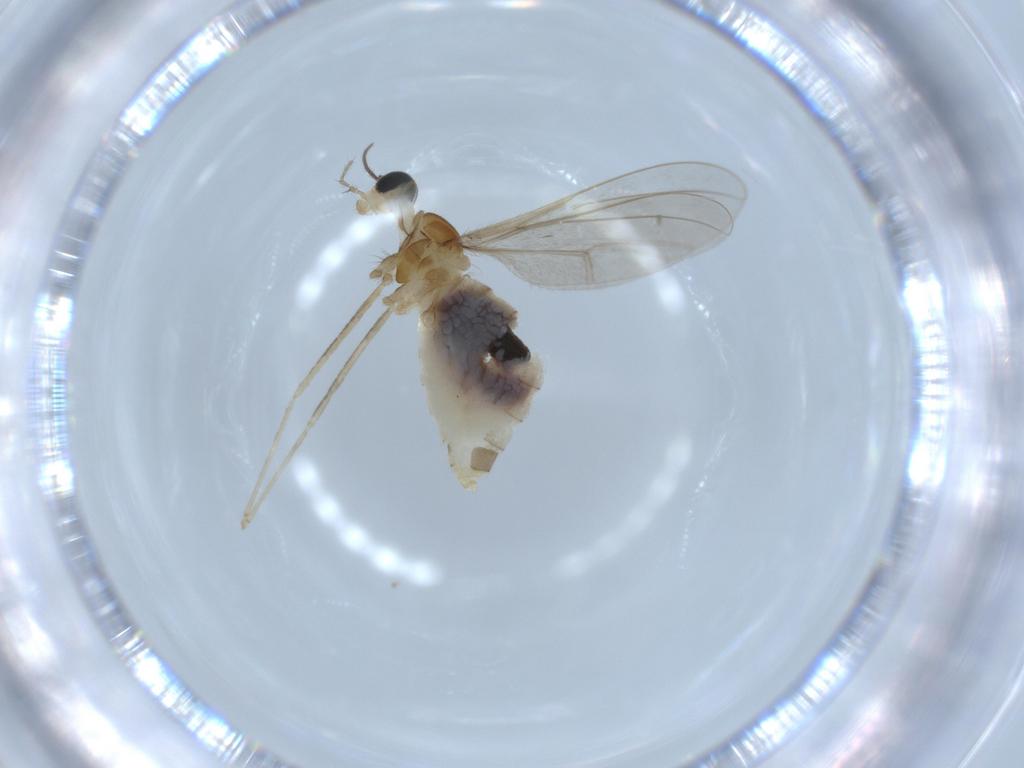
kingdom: Animalia
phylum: Arthropoda
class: Insecta
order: Diptera
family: Cecidomyiidae
